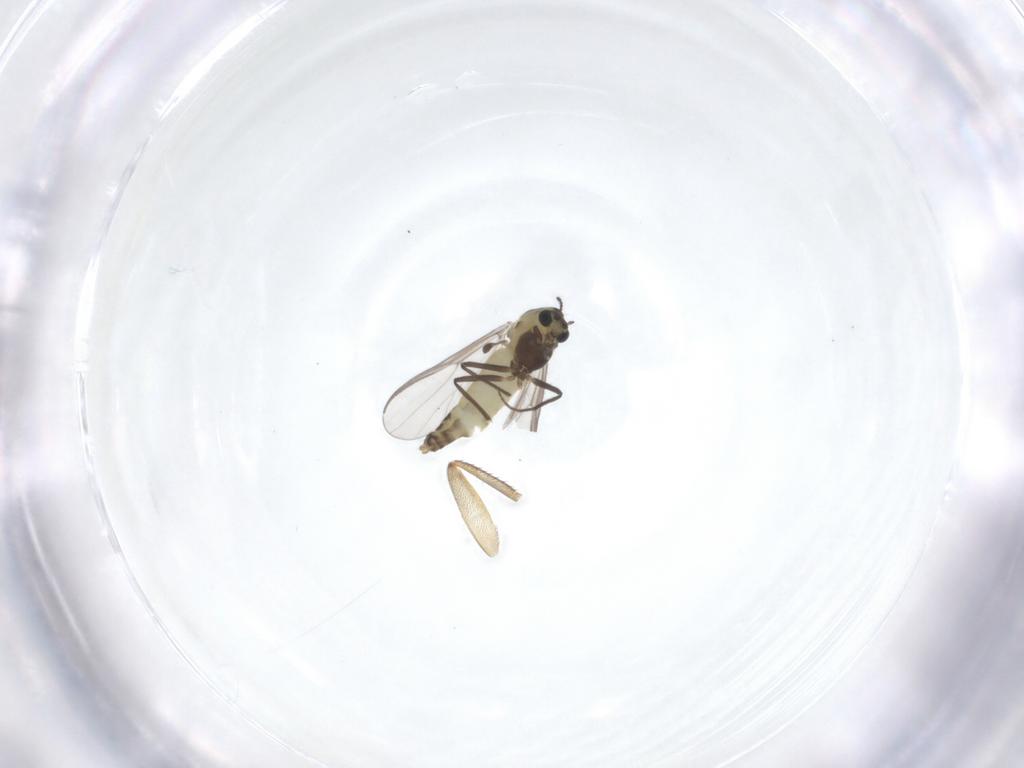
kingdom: Animalia
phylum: Arthropoda
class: Insecta
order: Diptera
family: Chironomidae
